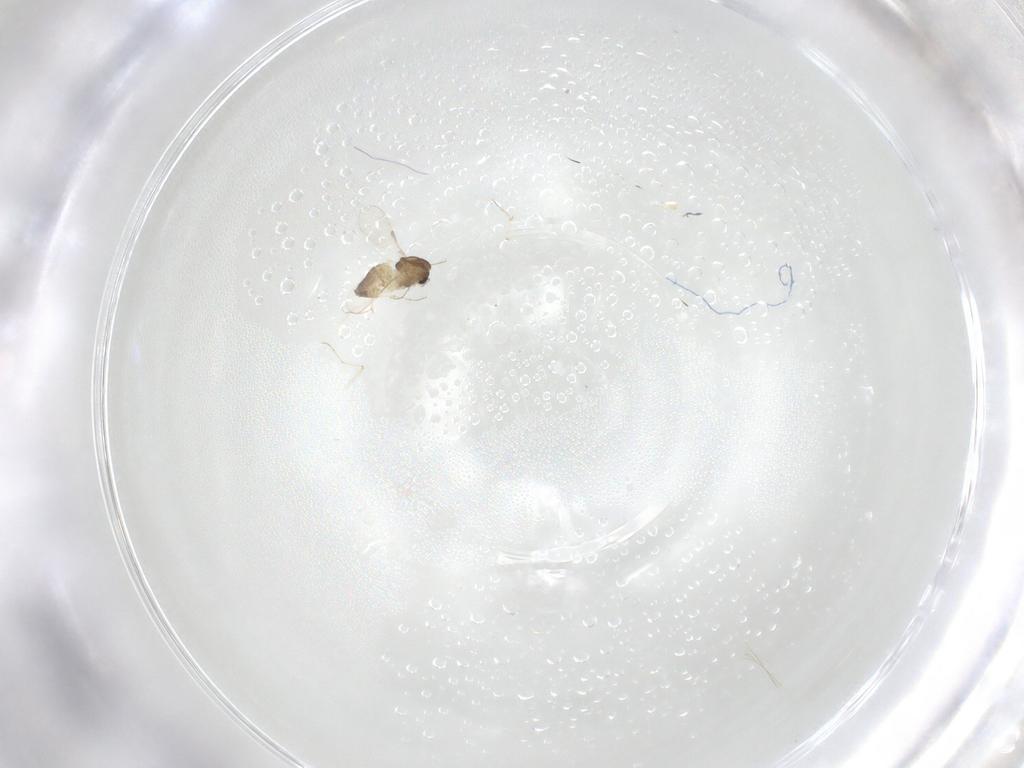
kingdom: Animalia
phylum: Arthropoda
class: Insecta
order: Diptera
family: Chironomidae
